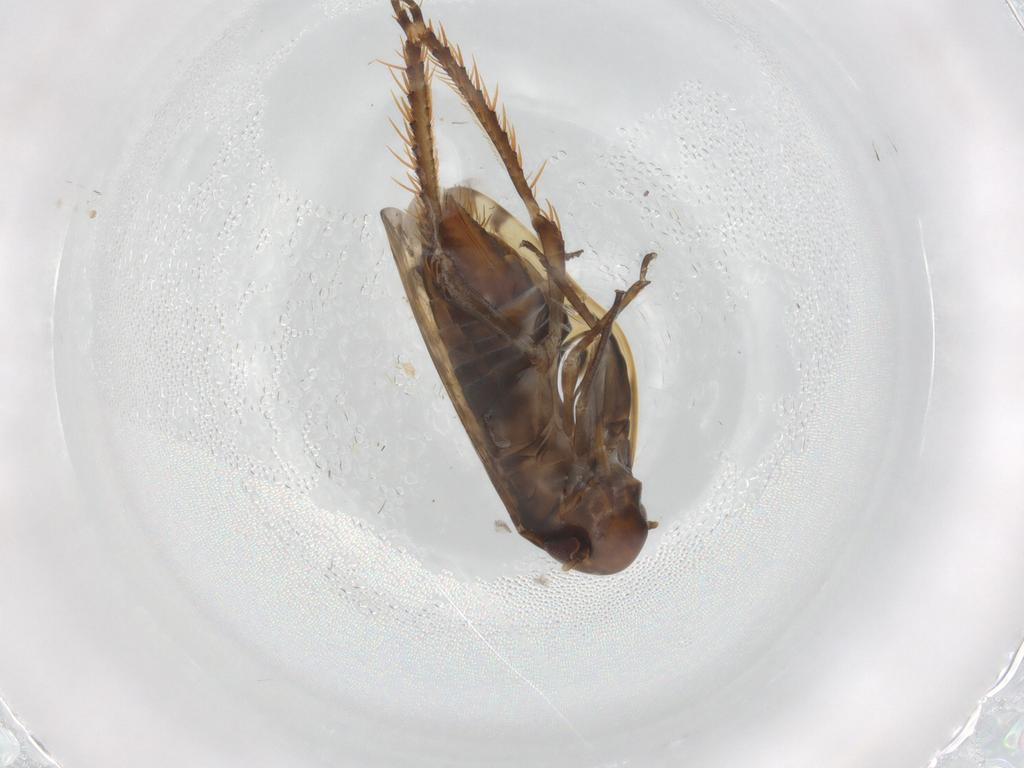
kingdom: Animalia
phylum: Arthropoda
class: Insecta
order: Hemiptera
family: Cicadellidae
